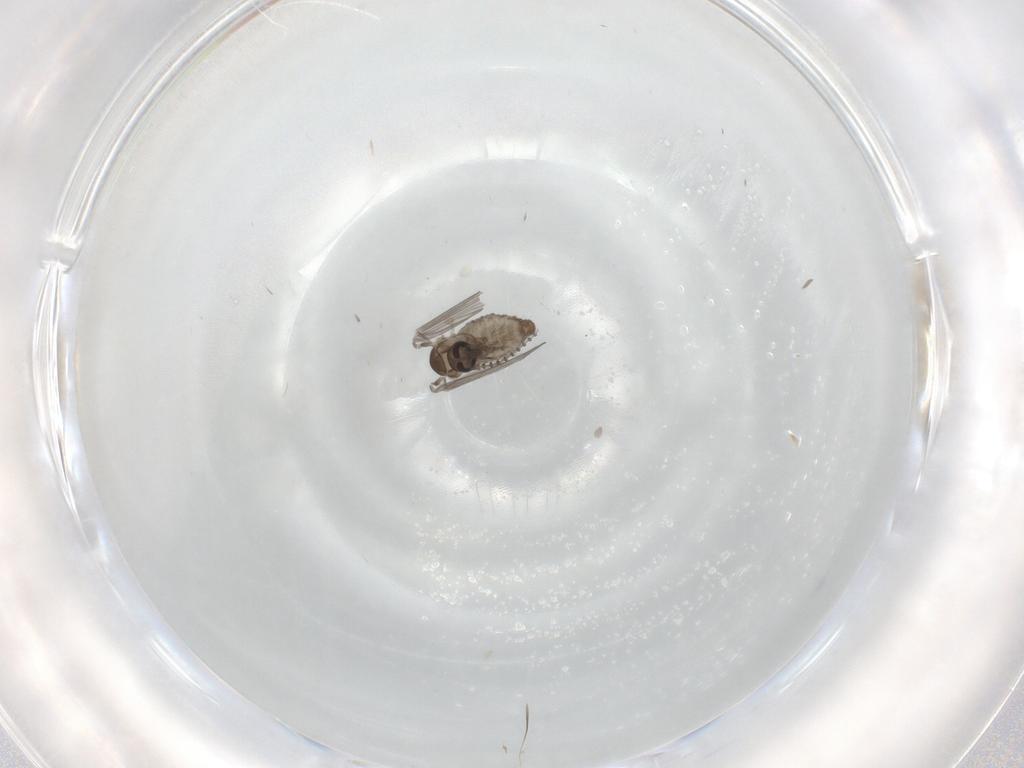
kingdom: Animalia
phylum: Arthropoda
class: Insecta
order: Diptera
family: Psychodidae
